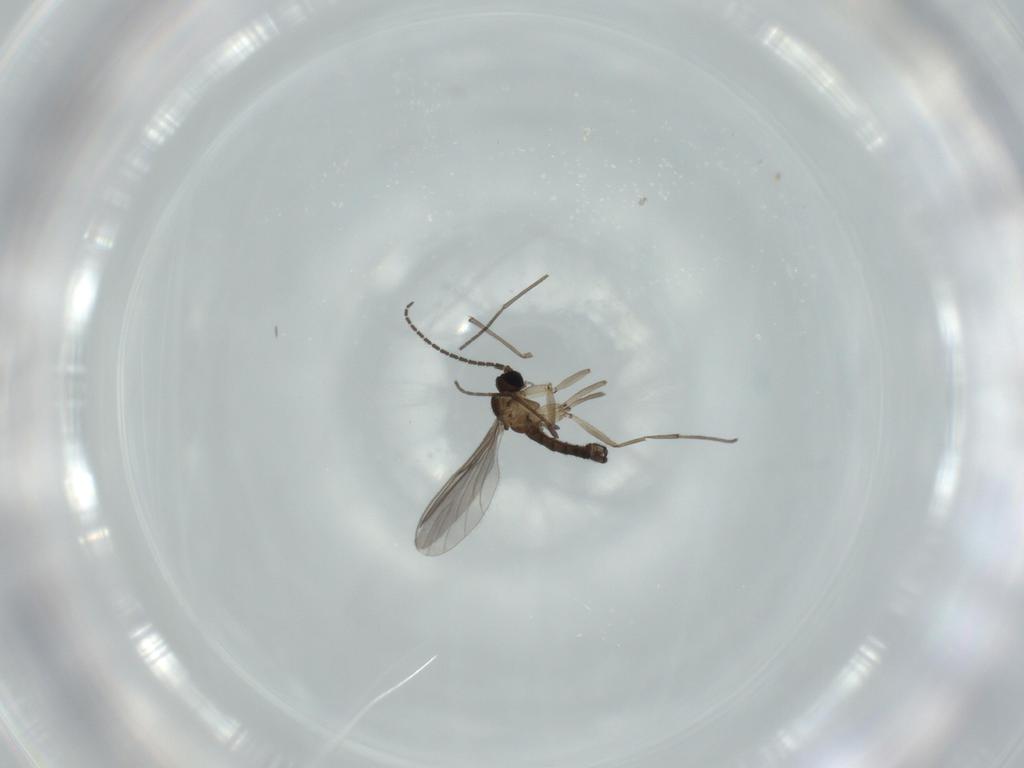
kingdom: Animalia
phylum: Arthropoda
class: Insecta
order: Diptera
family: Sciaridae
